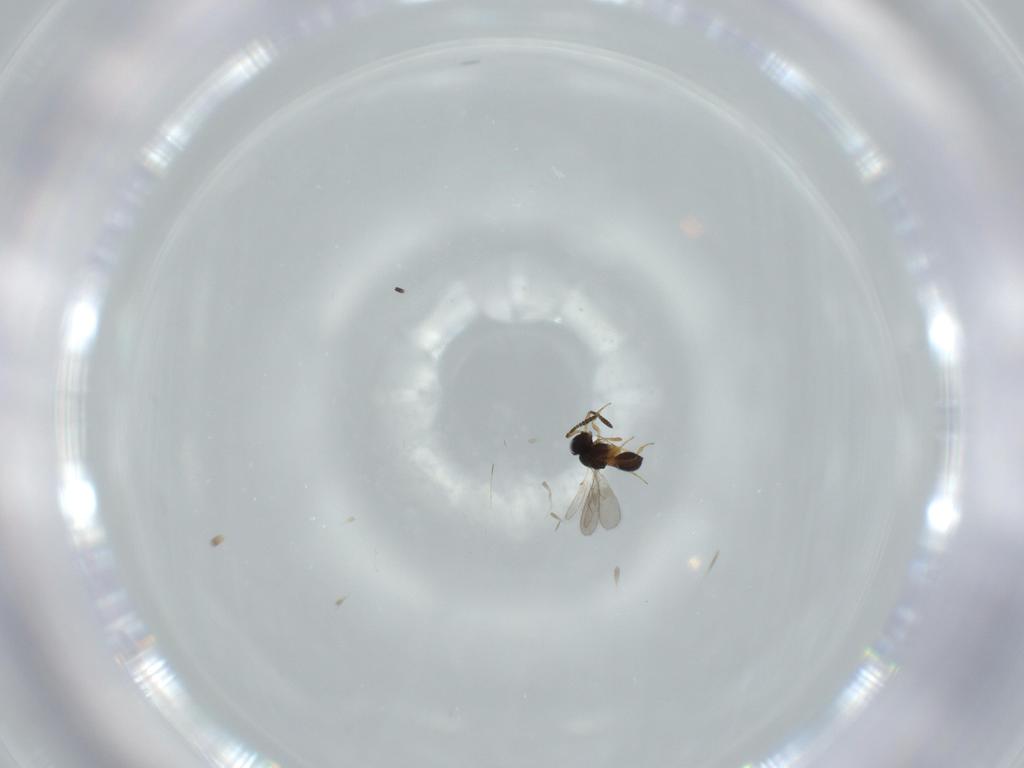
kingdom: Animalia
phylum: Arthropoda
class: Insecta
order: Hymenoptera
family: Scelionidae
